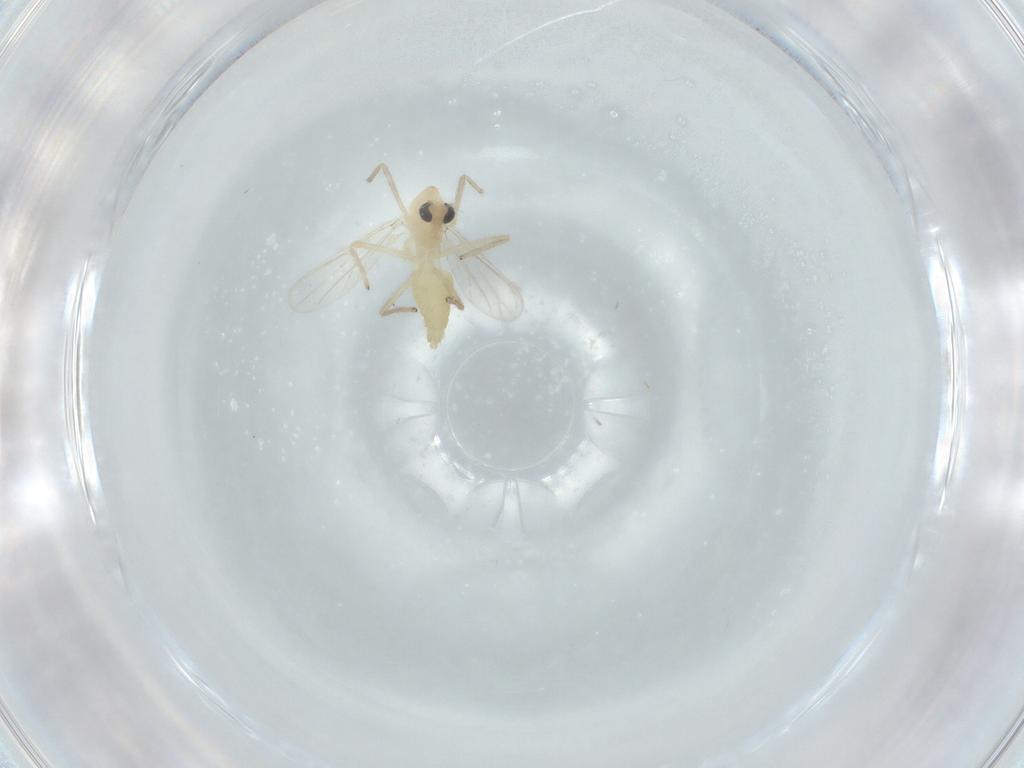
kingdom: Animalia
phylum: Arthropoda
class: Insecta
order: Diptera
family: Chironomidae
